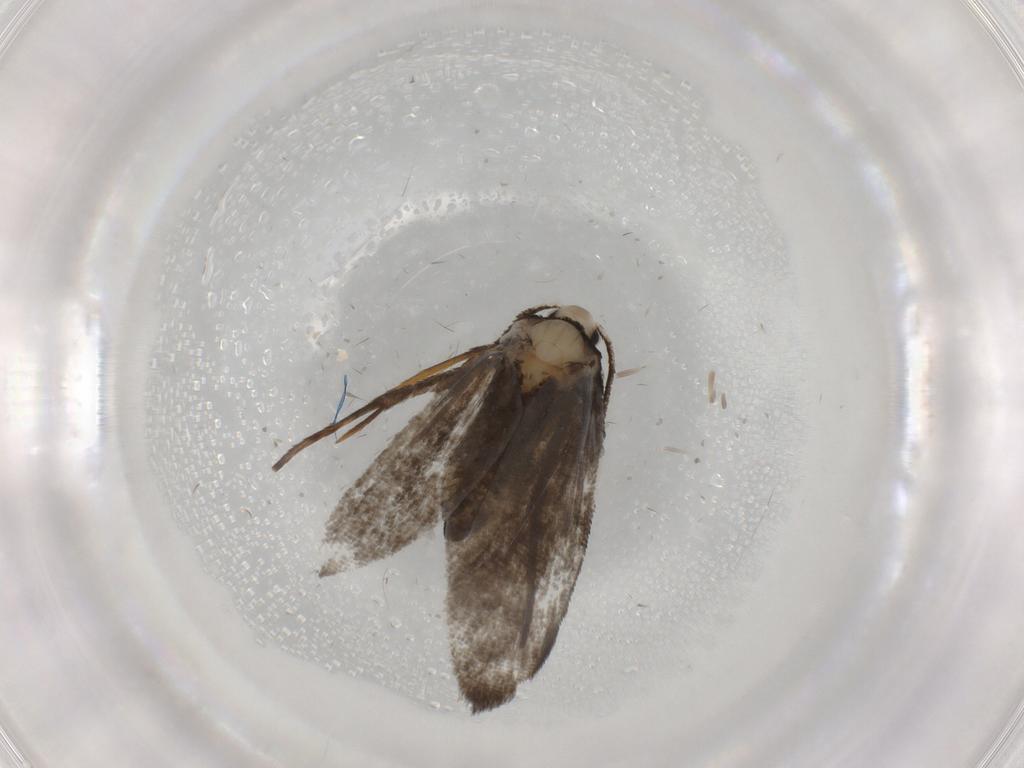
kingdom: Animalia
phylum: Arthropoda
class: Insecta
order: Lepidoptera
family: Psychidae
